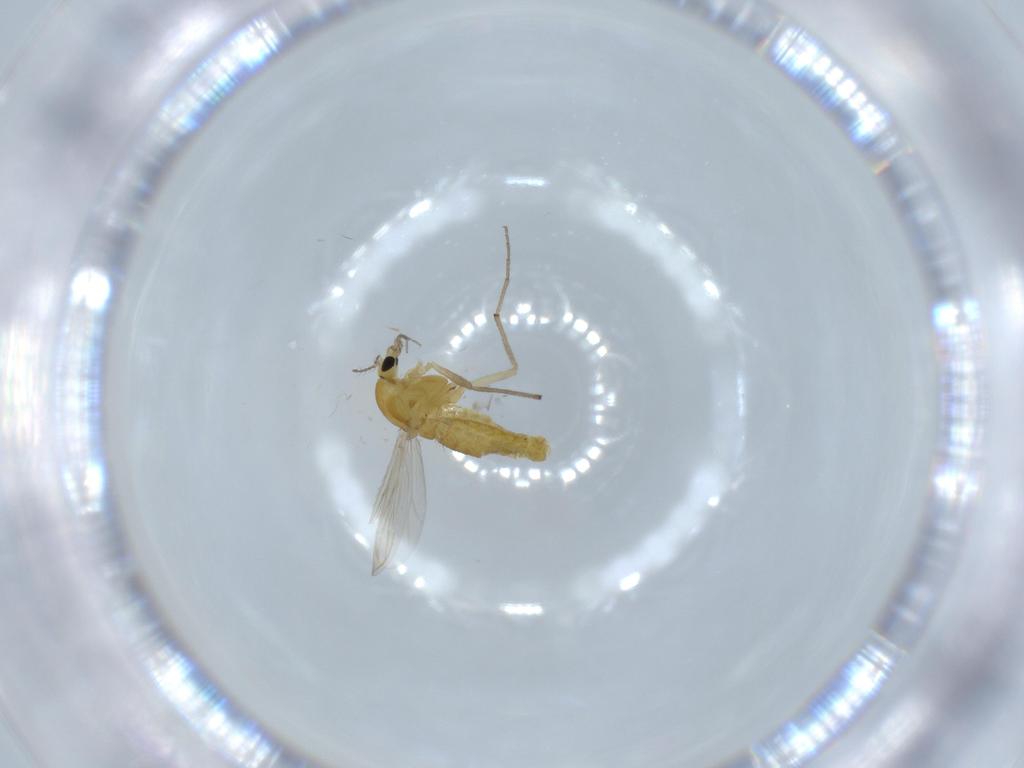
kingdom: Animalia
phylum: Arthropoda
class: Insecta
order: Diptera
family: Chironomidae
